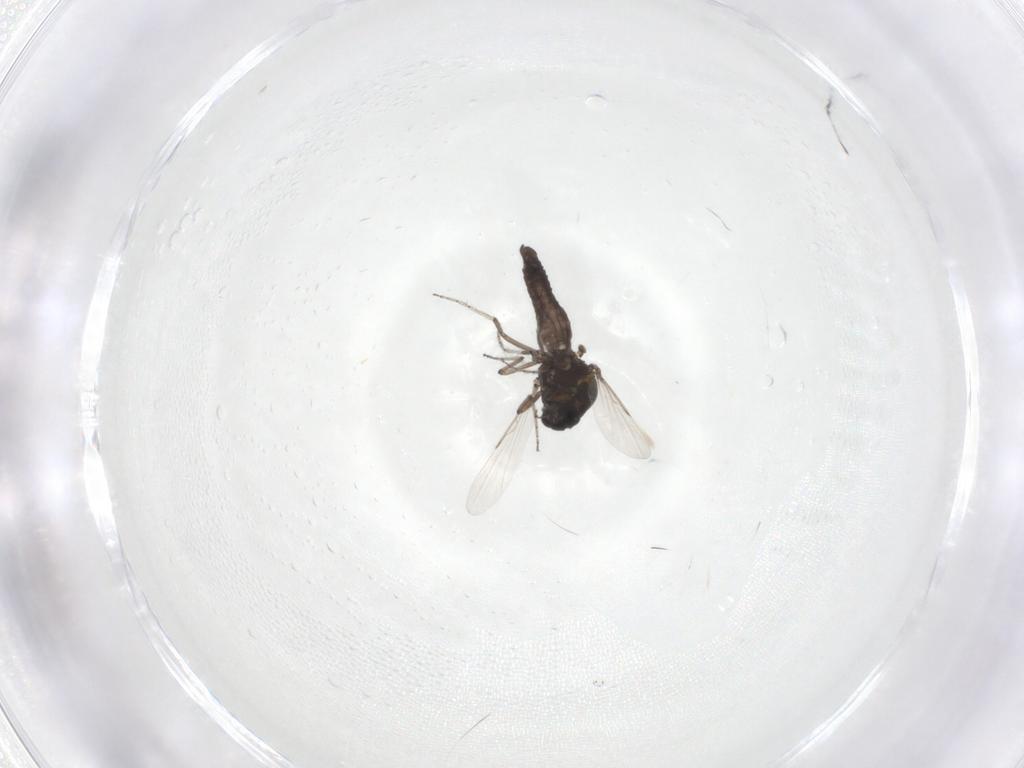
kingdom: Animalia
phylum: Arthropoda
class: Insecta
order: Diptera
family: Ceratopogonidae
